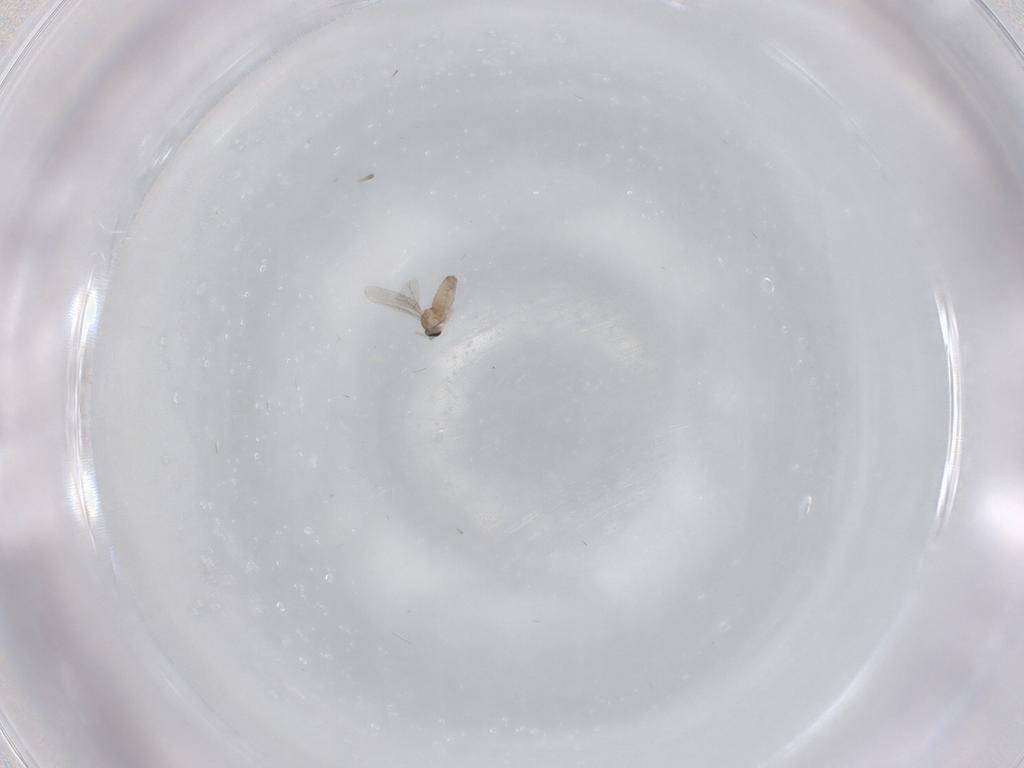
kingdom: Animalia
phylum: Arthropoda
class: Insecta
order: Diptera
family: Cecidomyiidae
